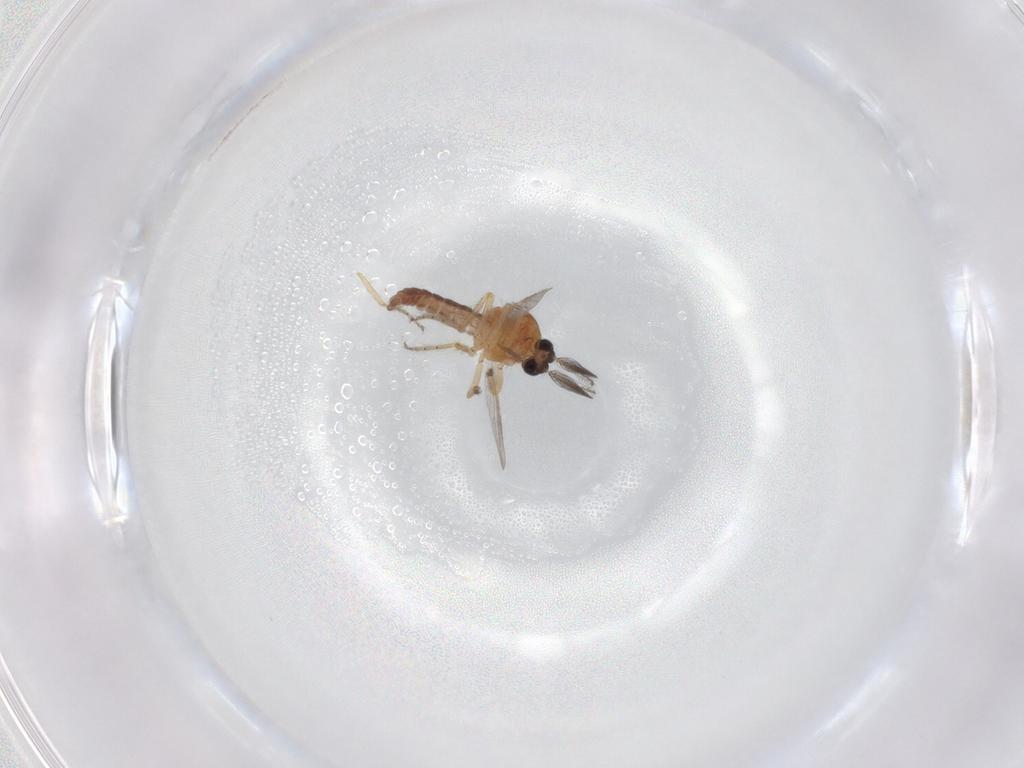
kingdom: Animalia
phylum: Arthropoda
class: Insecta
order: Diptera
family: Ceratopogonidae
